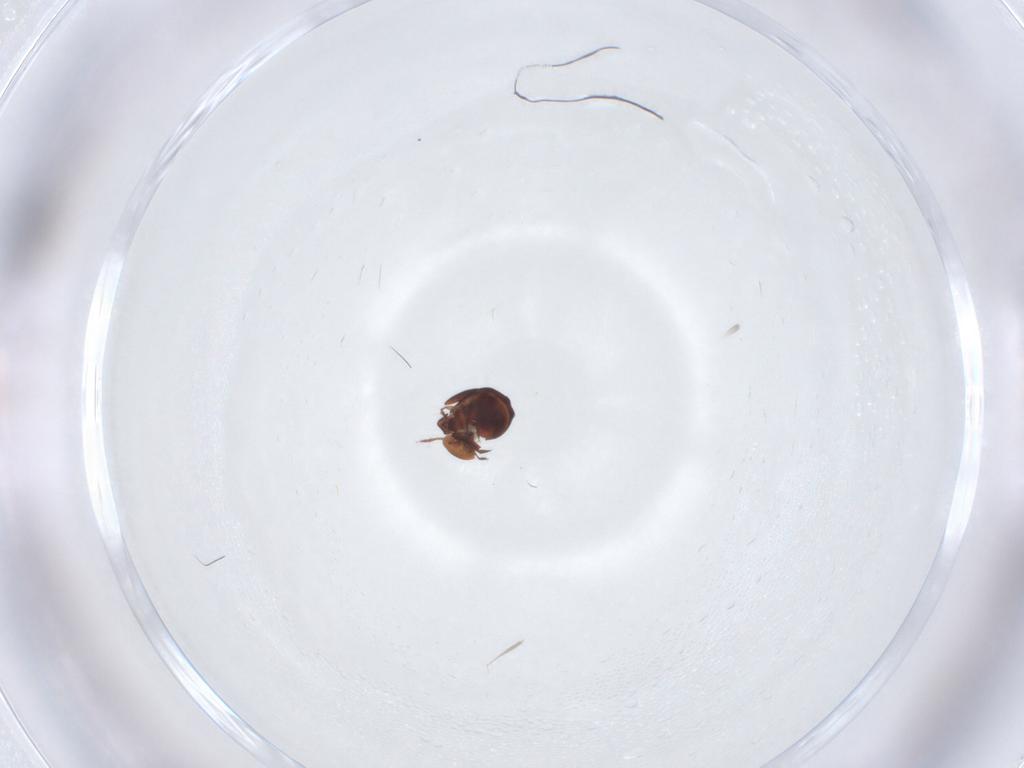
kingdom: Animalia
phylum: Arthropoda
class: Arachnida
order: Sarcoptiformes
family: Galumnidae
